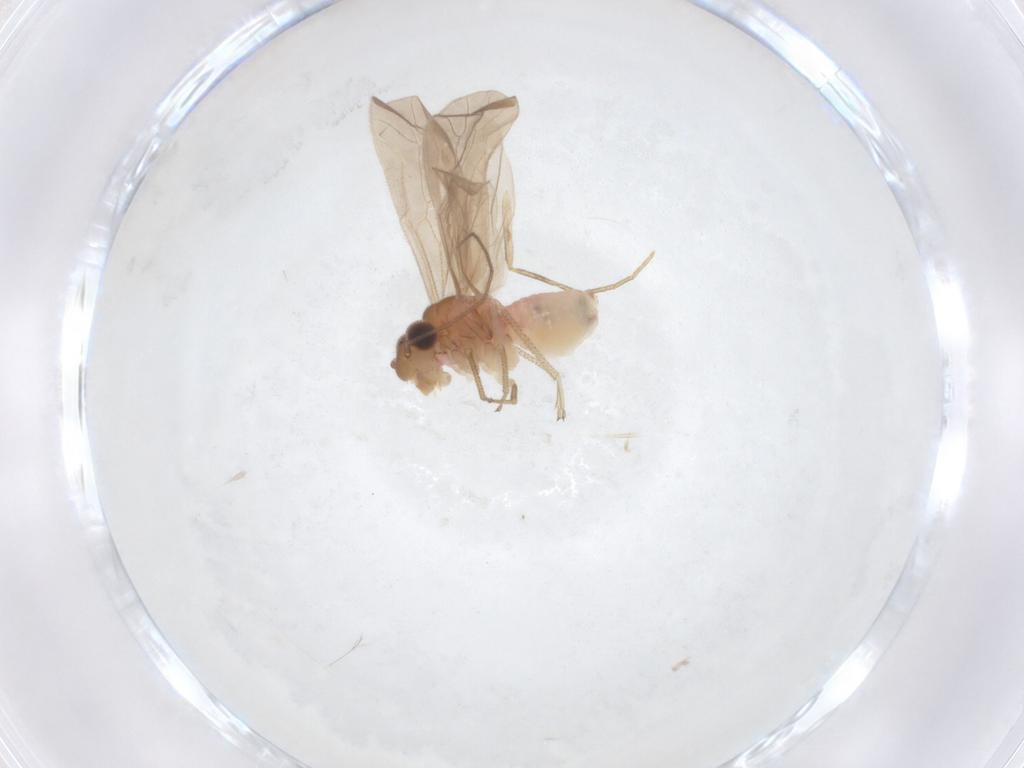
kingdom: Animalia
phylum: Arthropoda
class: Insecta
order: Psocodea
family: Caeciliusidae
